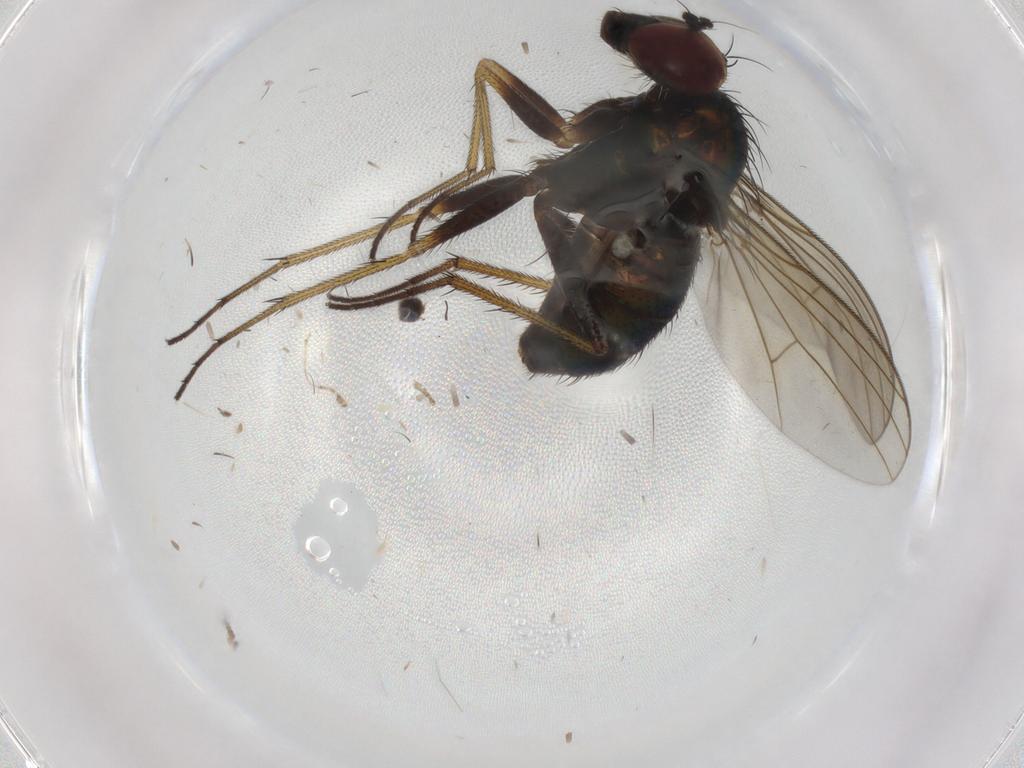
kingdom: Animalia
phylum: Arthropoda
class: Insecta
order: Diptera
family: Dolichopodidae
